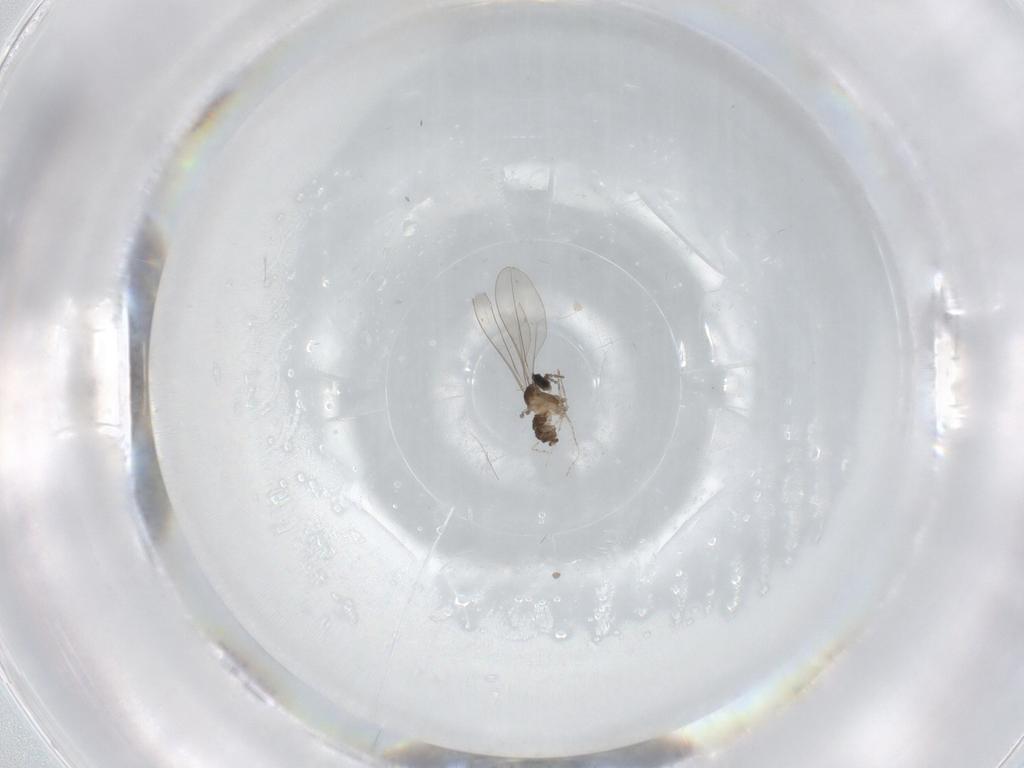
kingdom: Animalia
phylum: Arthropoda
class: Insecta
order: Diptera
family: Cecidomyiidae
